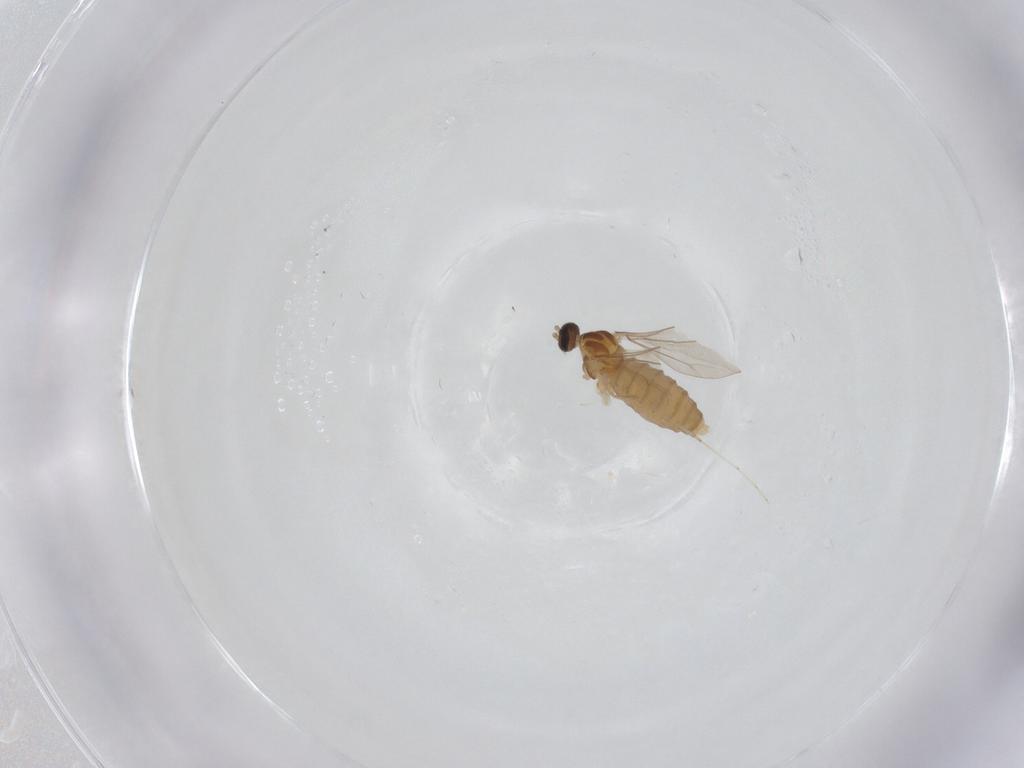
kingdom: Animalia
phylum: Arthropoda
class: Insecta
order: Diptera
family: Cecidomyiidae
